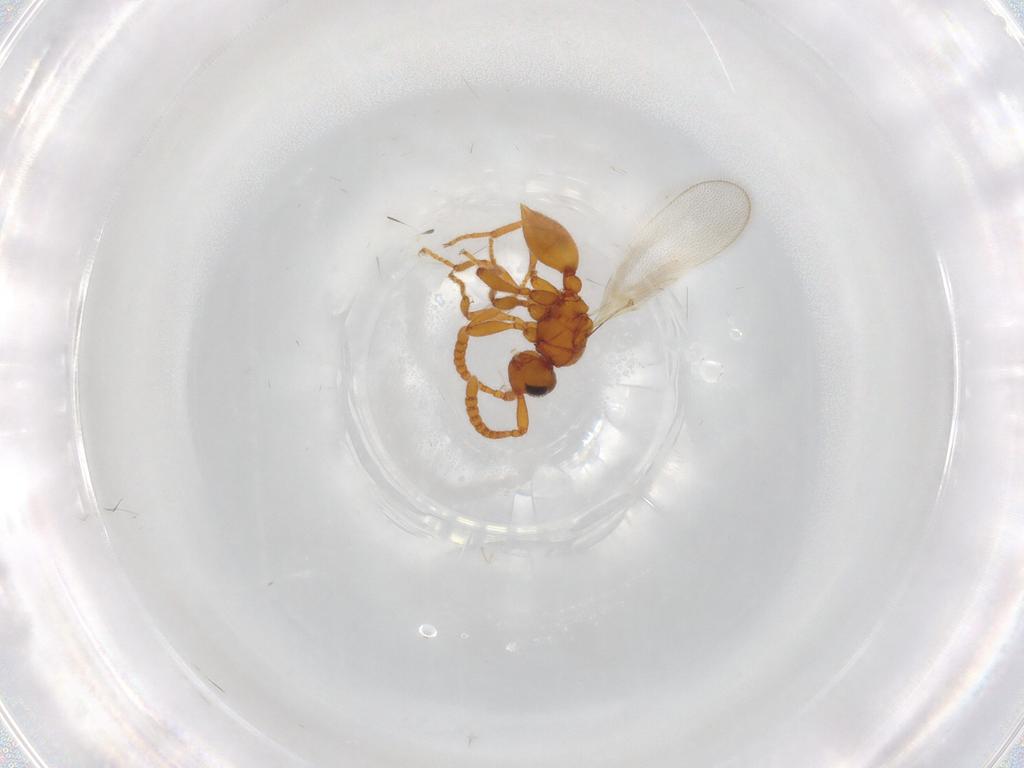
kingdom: Animalia
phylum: Arthropoda
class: Insecta
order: Hymenoptera
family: Diapriidae
